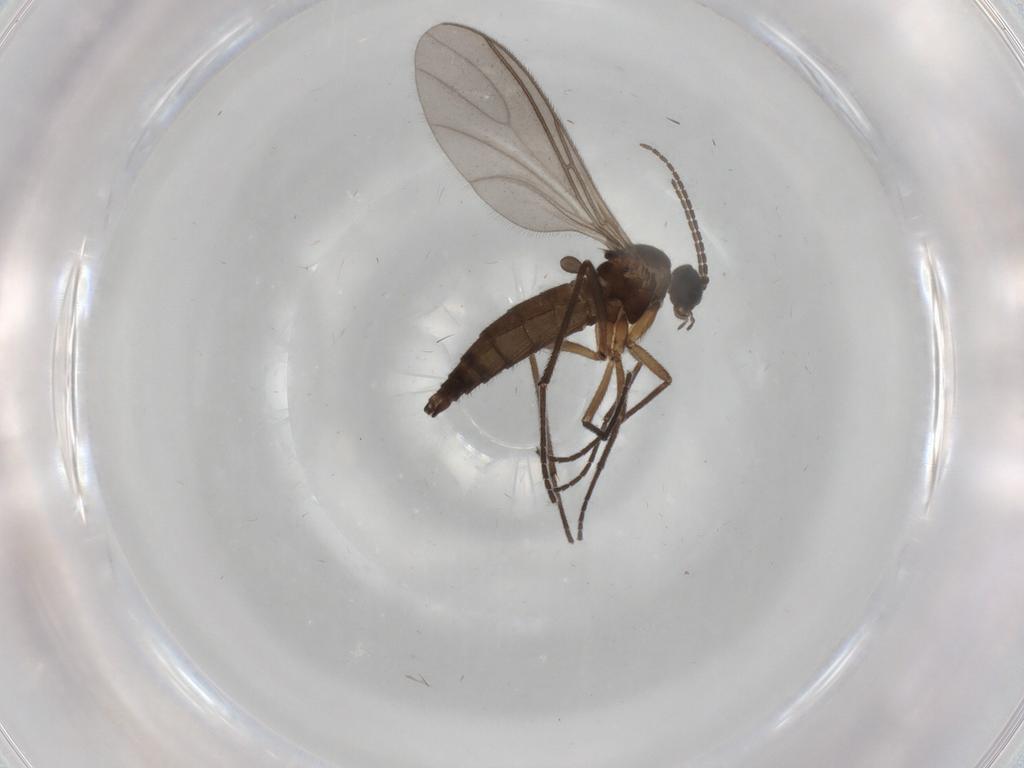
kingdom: Animalia
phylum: Arthropoda
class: Insecta
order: Diptera
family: Sciaridae
